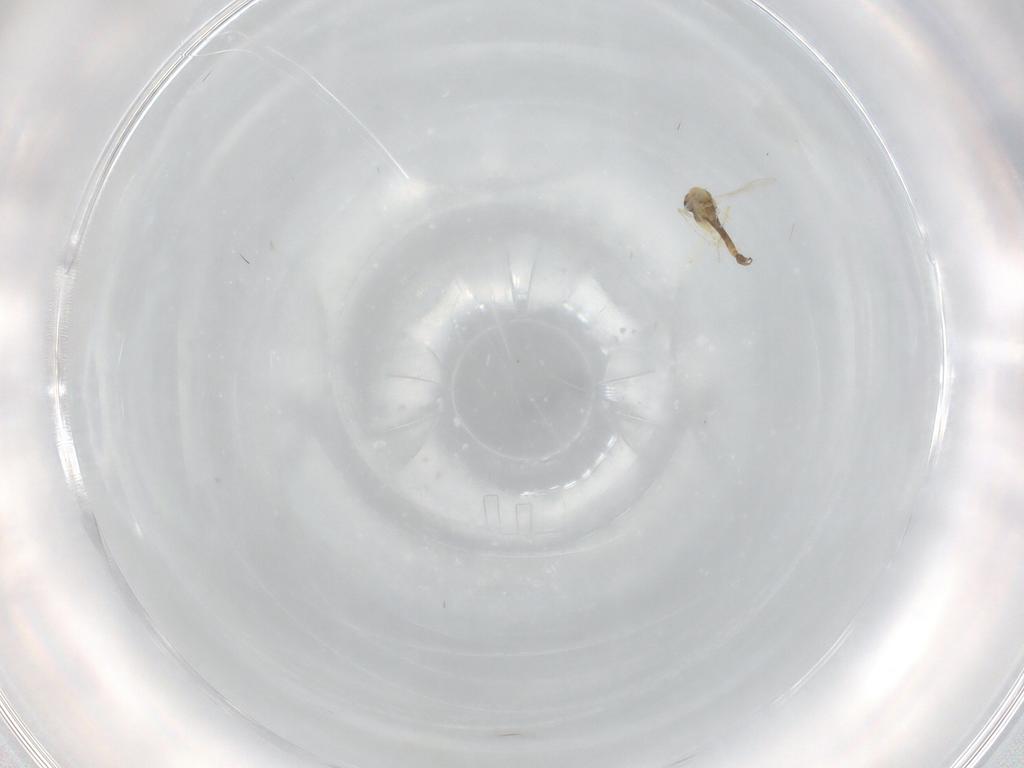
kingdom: Animalia
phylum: Arthropoda
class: Insecta
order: Diptera
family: Chironomidae
